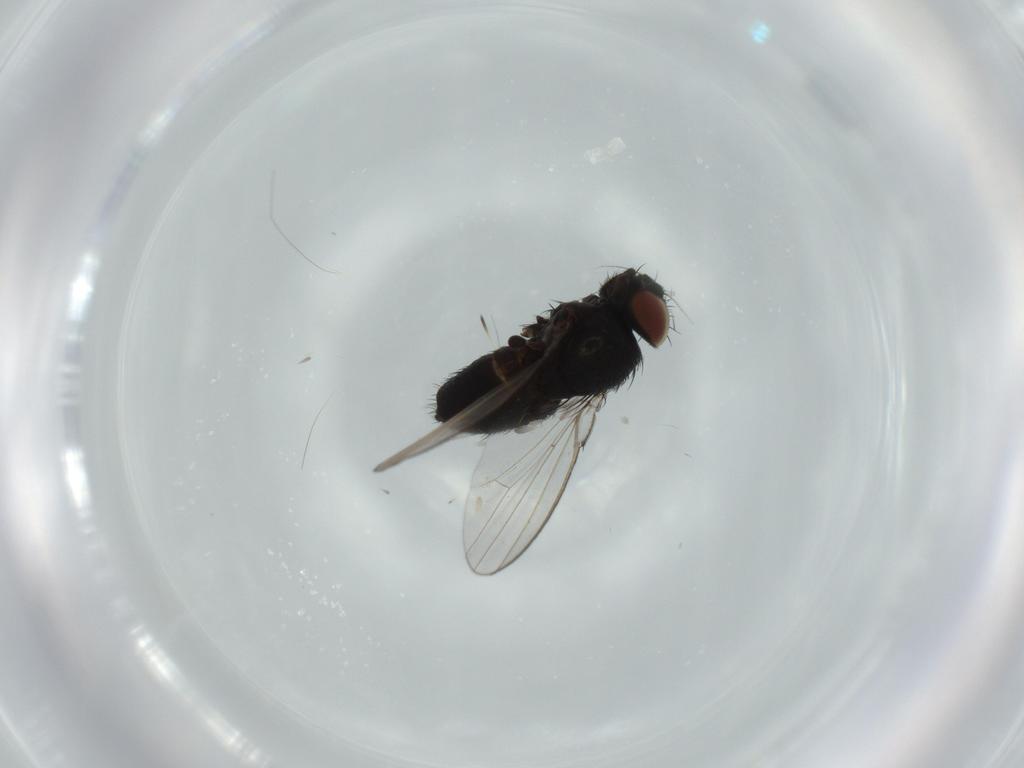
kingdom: Animalia
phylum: Arthropoda
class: Insecta
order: Diptera
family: Milichiidae
